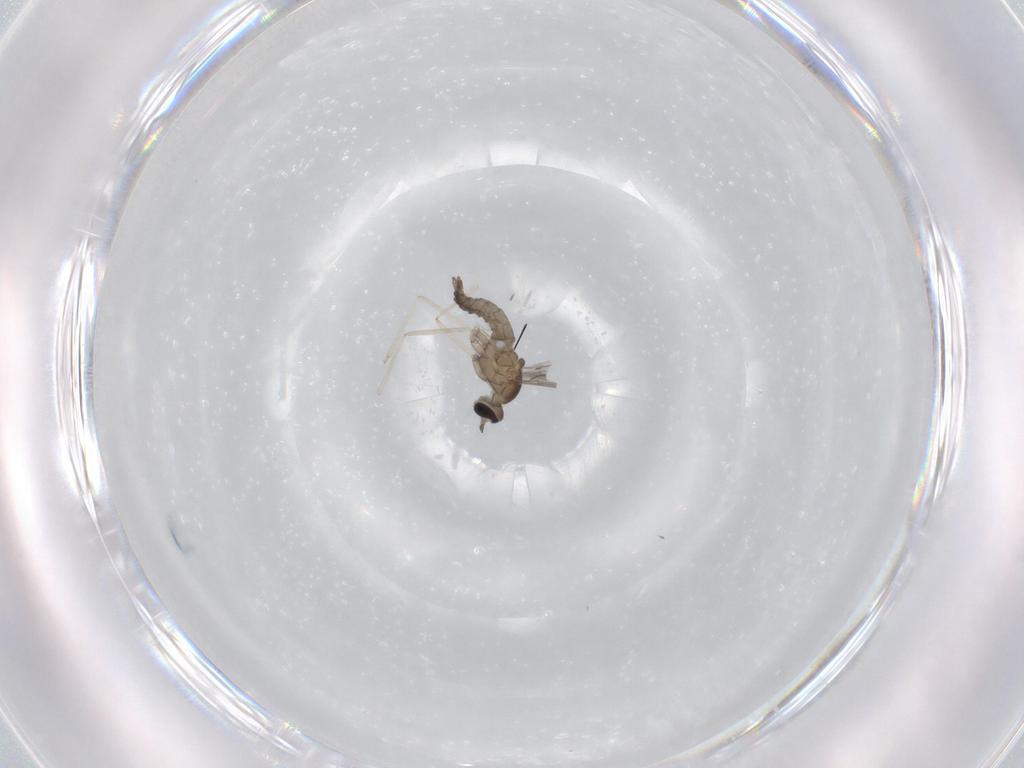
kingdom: Animalia
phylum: Arthropoda
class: Insecta
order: Diptera
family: Cecidomyiidae
